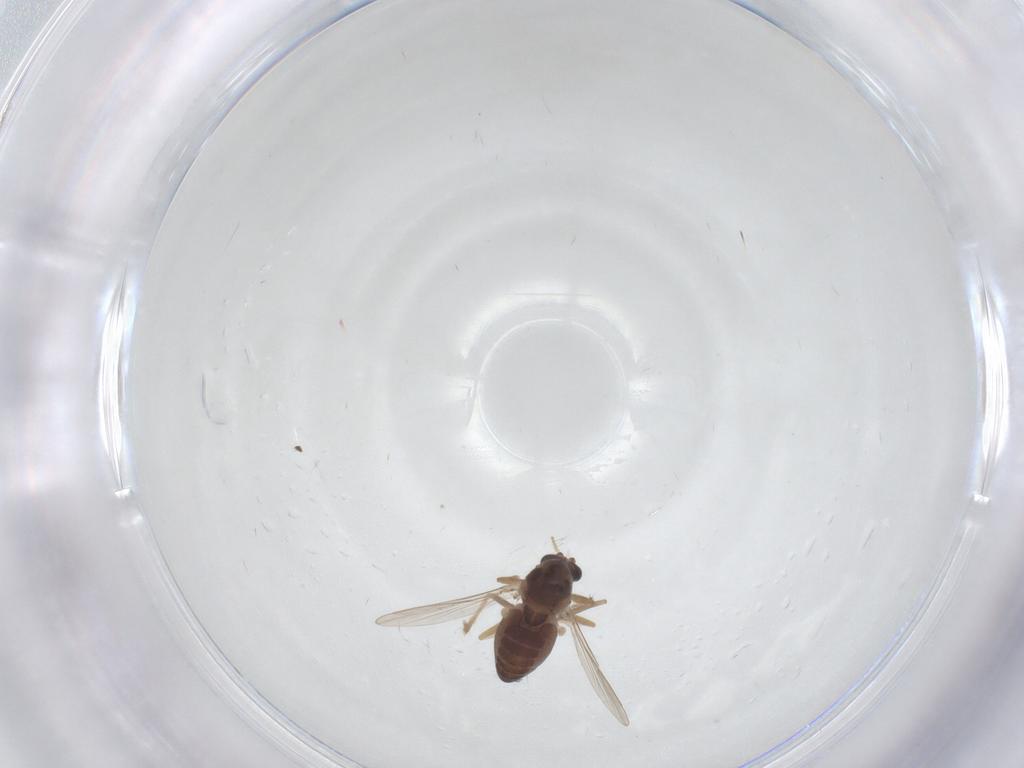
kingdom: Animalia
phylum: Arthropoda
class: Insecta
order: Diptera
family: Chironomidae
